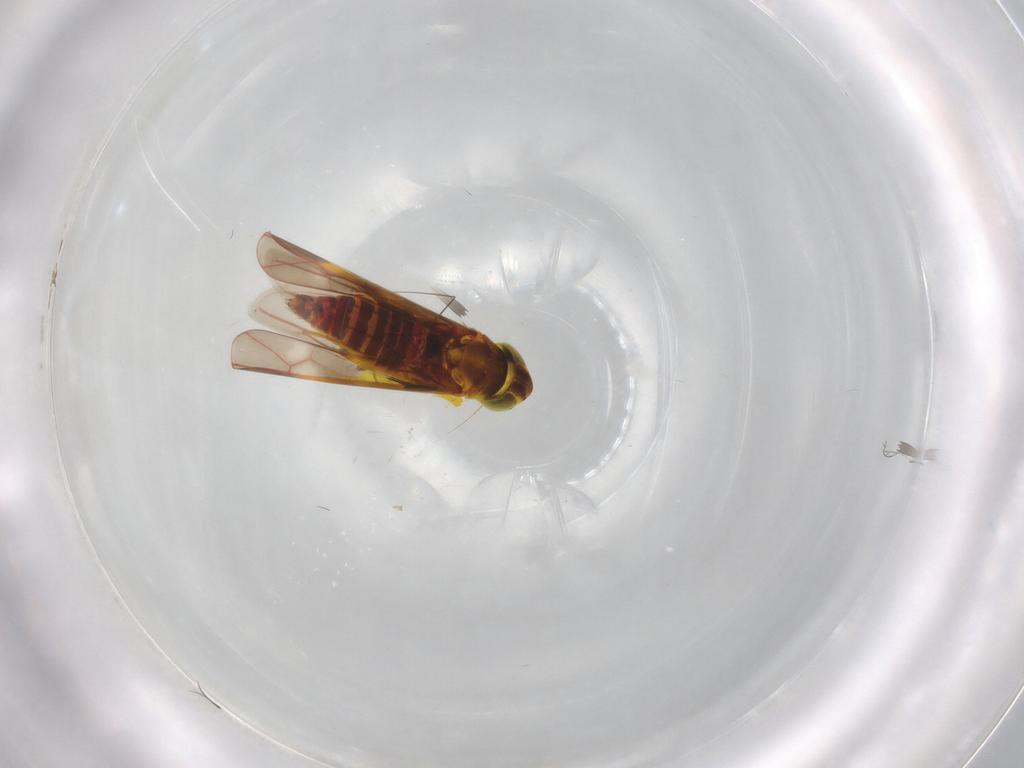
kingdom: Animalia
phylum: Arthropoda
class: Insecta
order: Hemiptera
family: Cicadellidae
